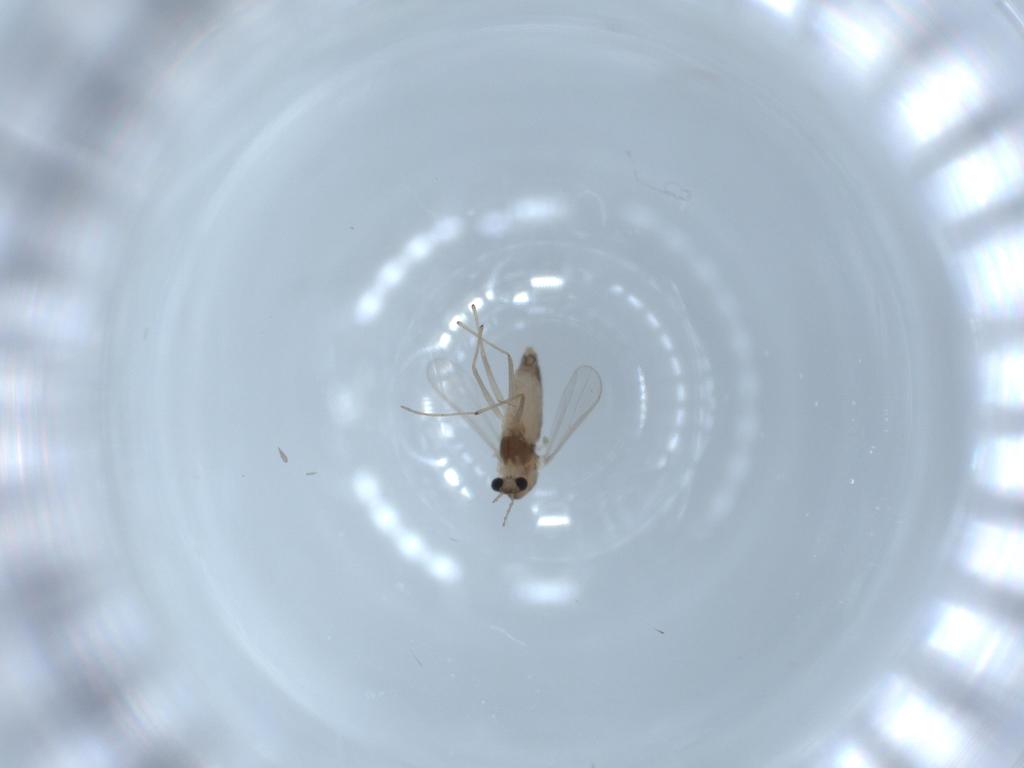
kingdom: Animalia
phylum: Arthropoda
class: Insecta
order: Diptera
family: Chironomidae
